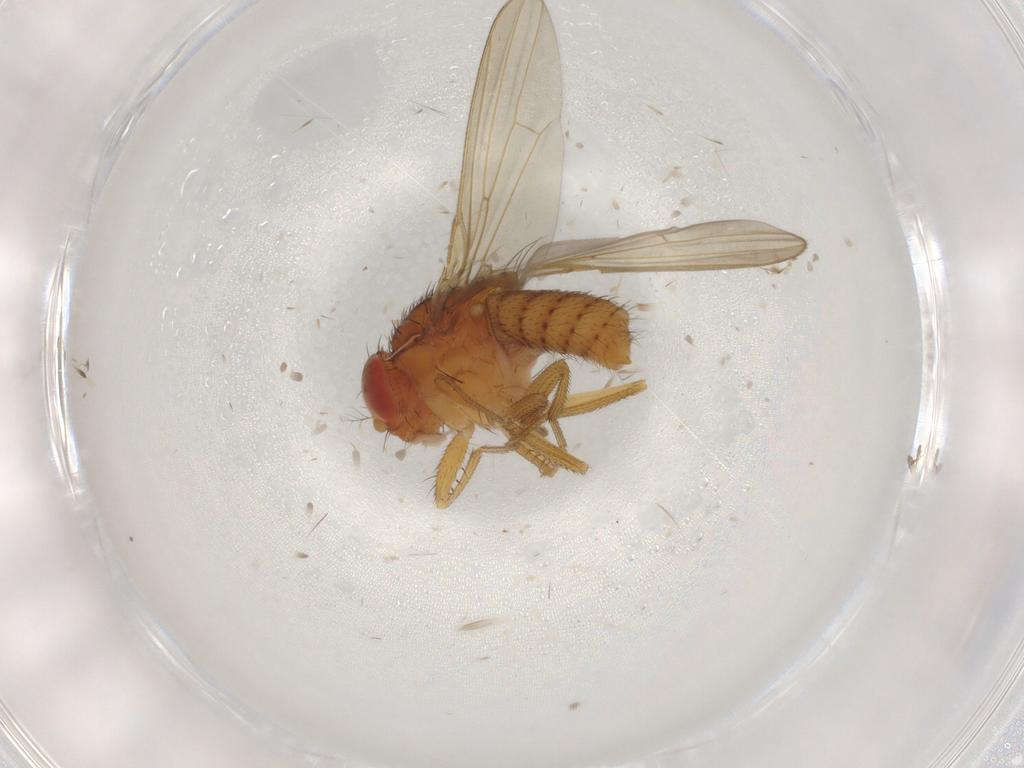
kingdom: Animalia
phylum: Arthropoda
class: Insecta
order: Diptera
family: Drosophilidae
